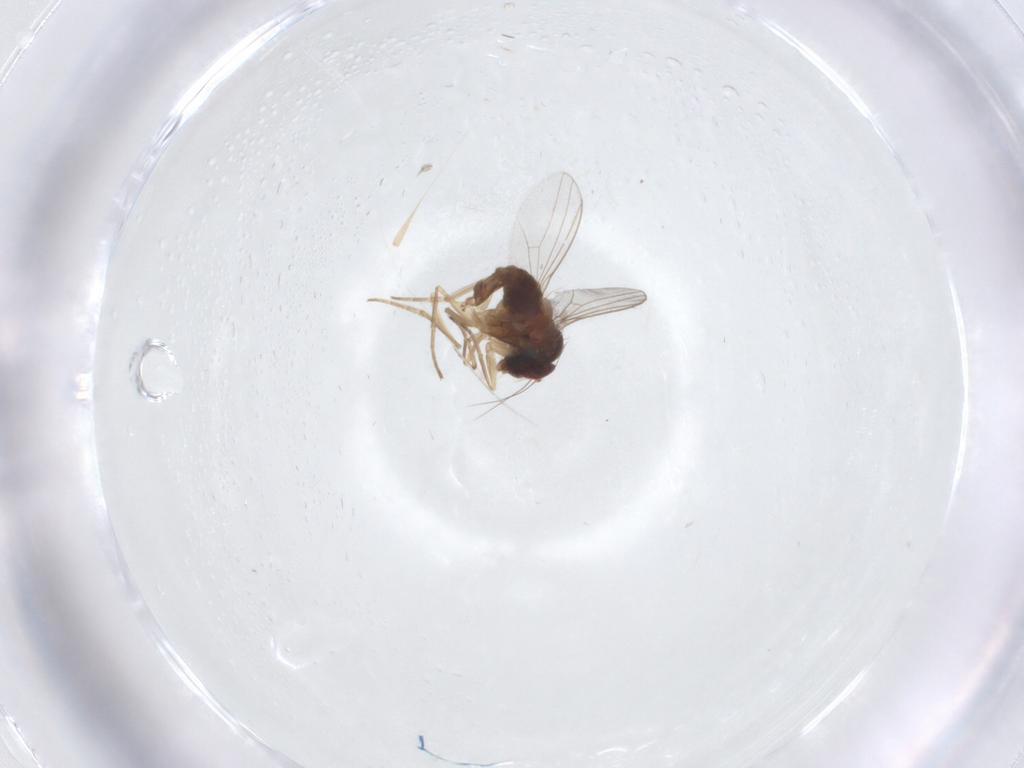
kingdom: Animalia
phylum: Arthropoda
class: Insecta
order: Diptera
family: Dolichopodidae
